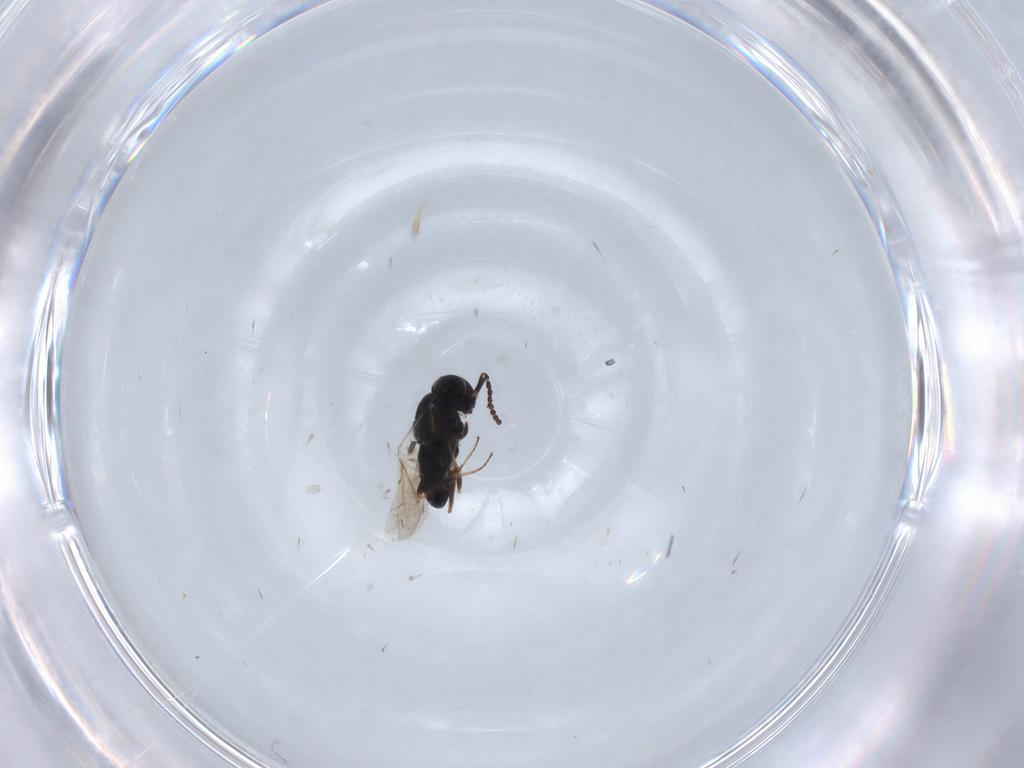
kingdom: Animalia
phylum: Arthropoda
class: Insecta
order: Hymenoptera
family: Scelionidae
